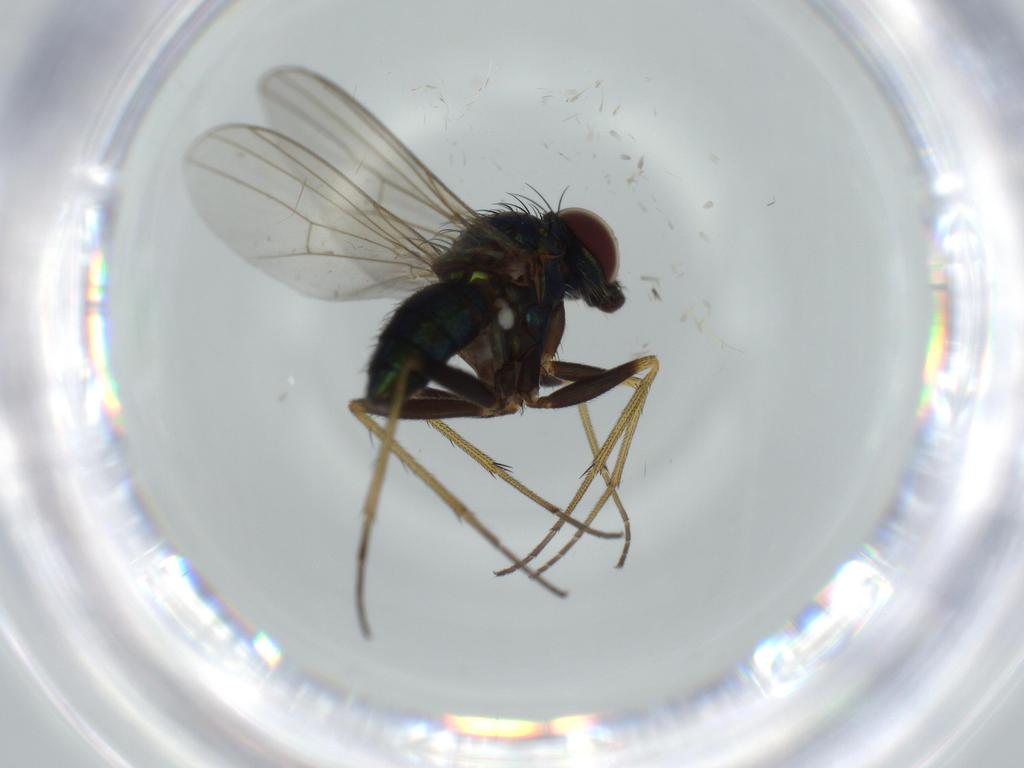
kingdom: Animalia
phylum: Arthropoda
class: Insecta
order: Diptera
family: Dolichopodidae
